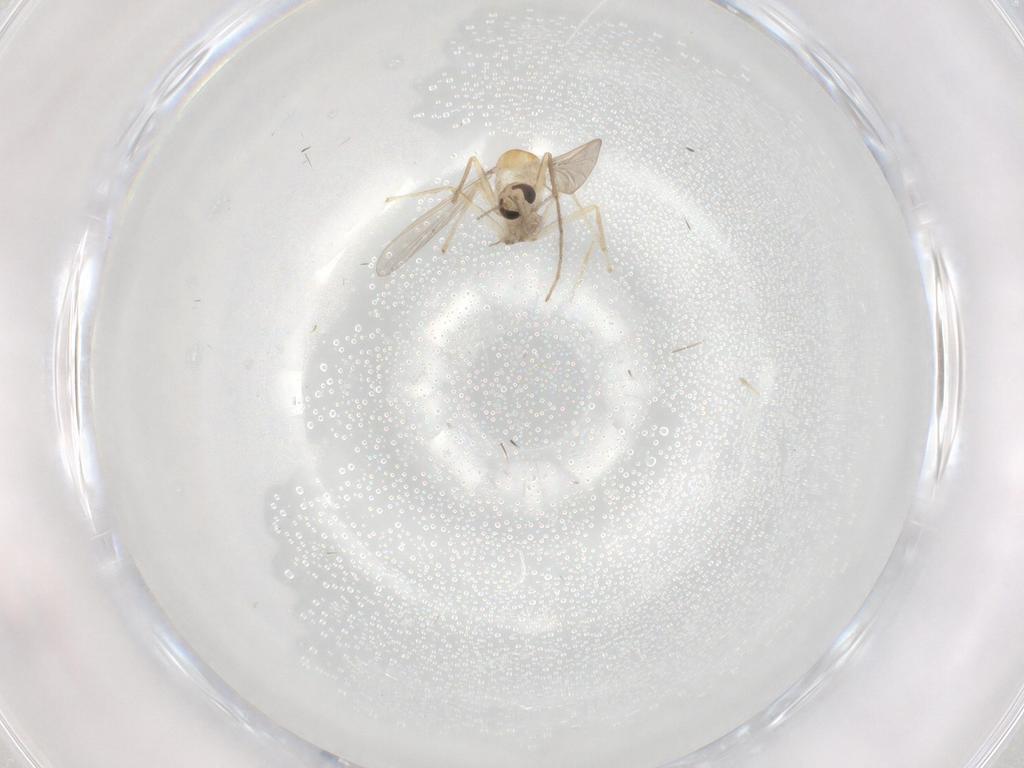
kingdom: Animalia
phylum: Arthropoda
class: Insecta
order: Diptera
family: Chironomidae
